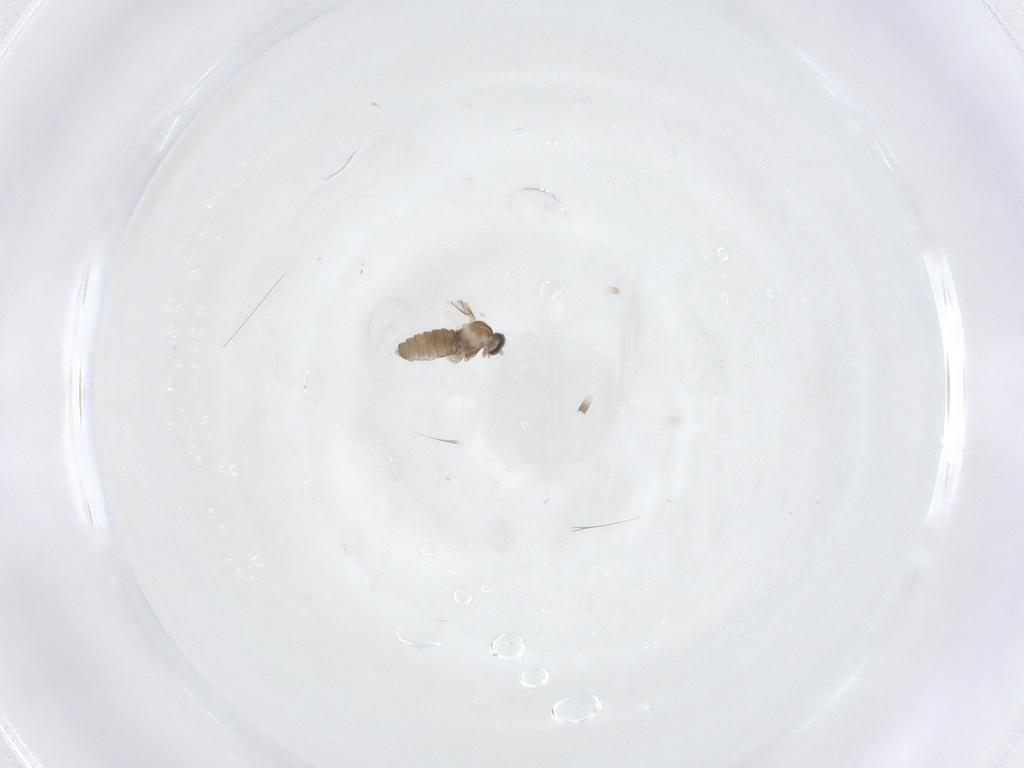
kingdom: Animalia
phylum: Arthropoda
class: Insecta
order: Diptera
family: Cecidomyiidae
